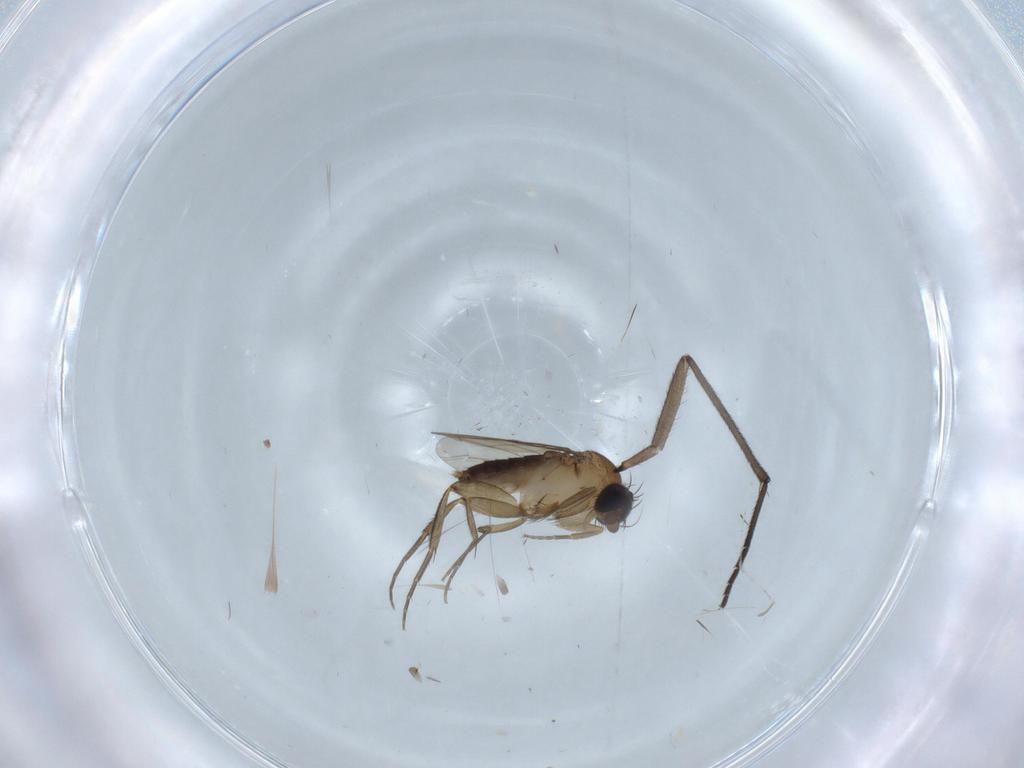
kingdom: Animalia
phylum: Arthropoda
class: Insecta
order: Diptera
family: Phoridae
